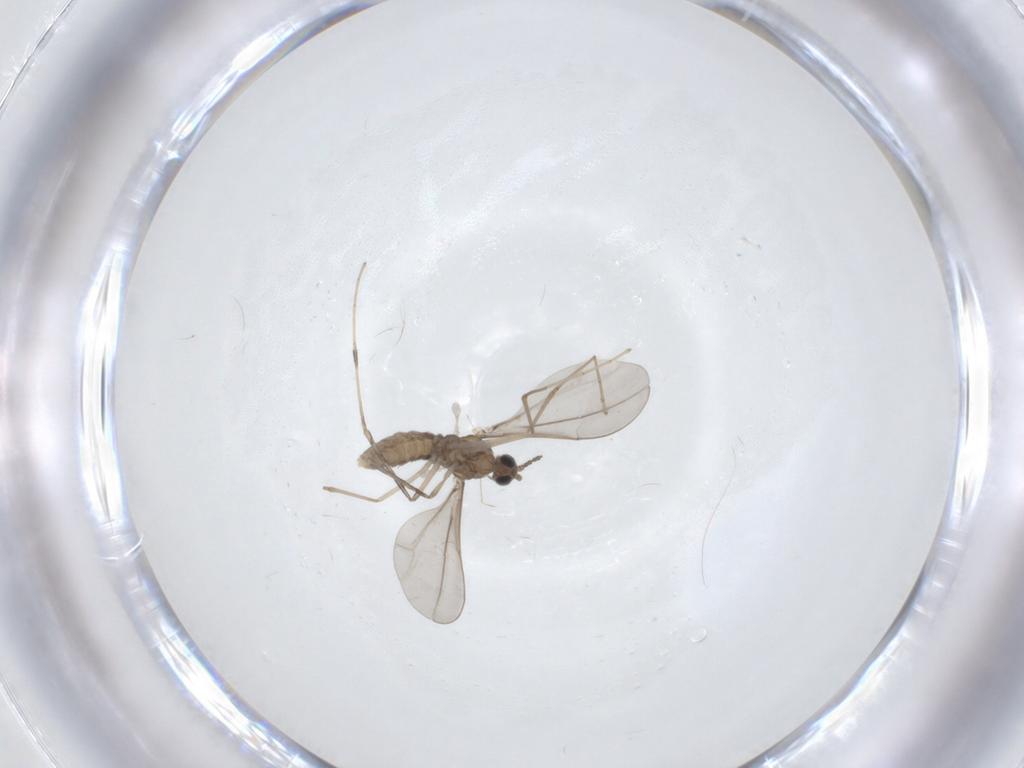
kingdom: Animalia
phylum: Arthropoda
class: Insecta
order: Diptera
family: Cecidomyiidae
